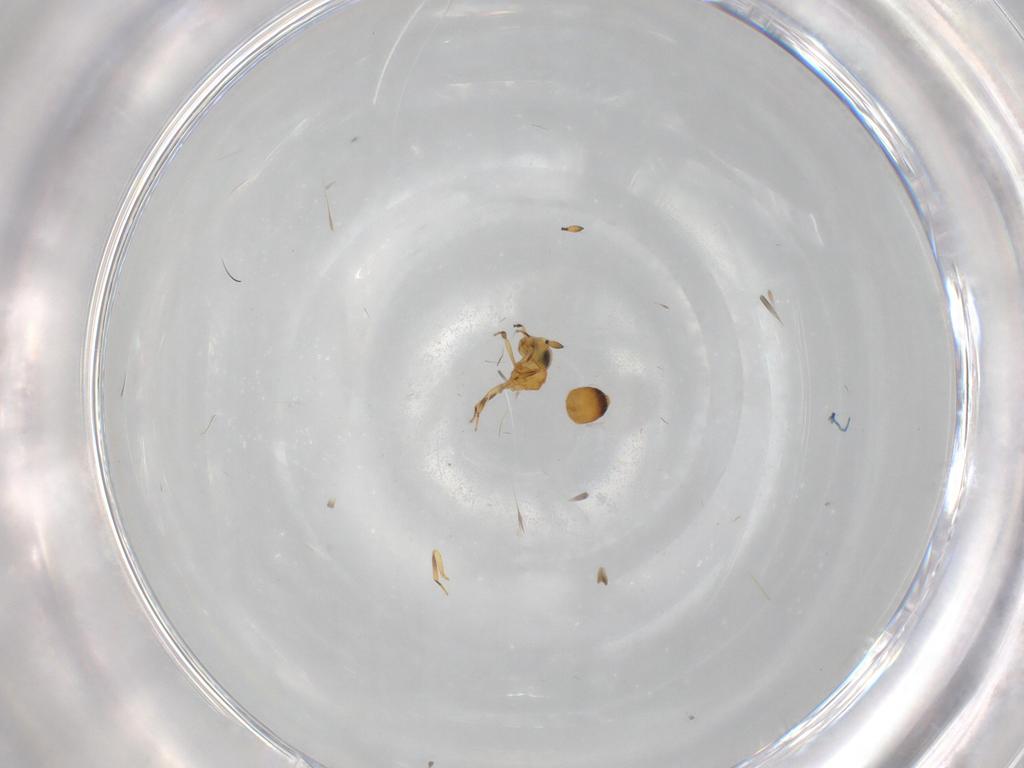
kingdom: Animalia
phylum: Arthropoda
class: Insecta
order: Hymenoptera
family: Scelionidae
